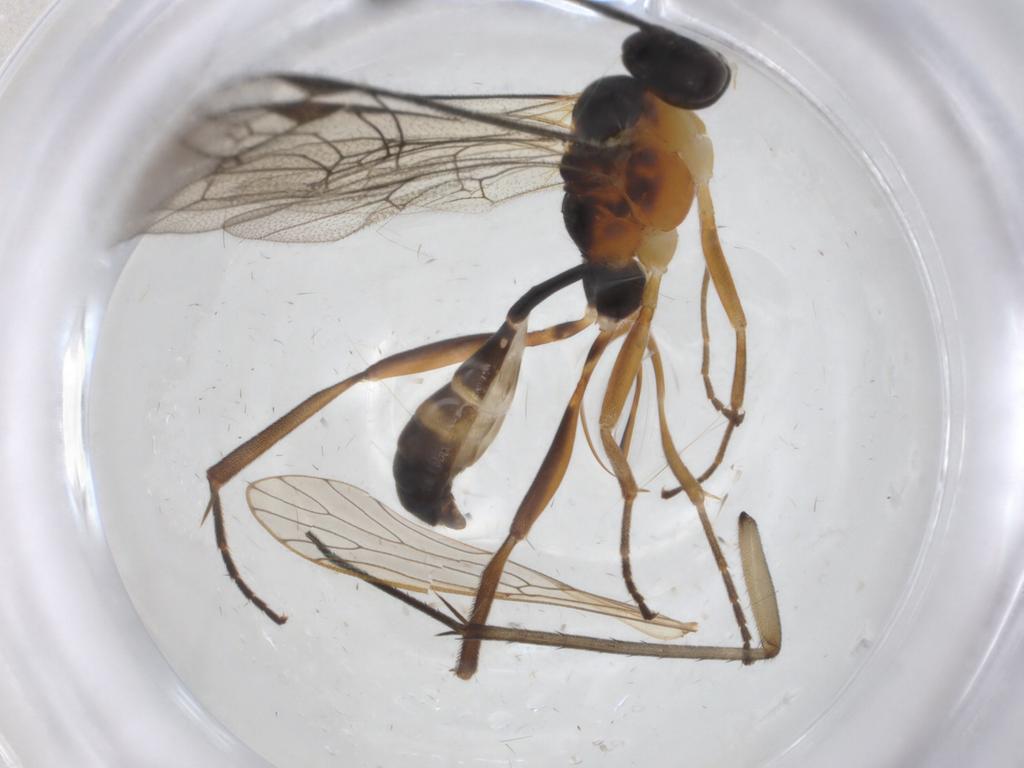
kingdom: Animalia
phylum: Arthropoda
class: Insecta
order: Hymenoptera
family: Ichneumonidae
